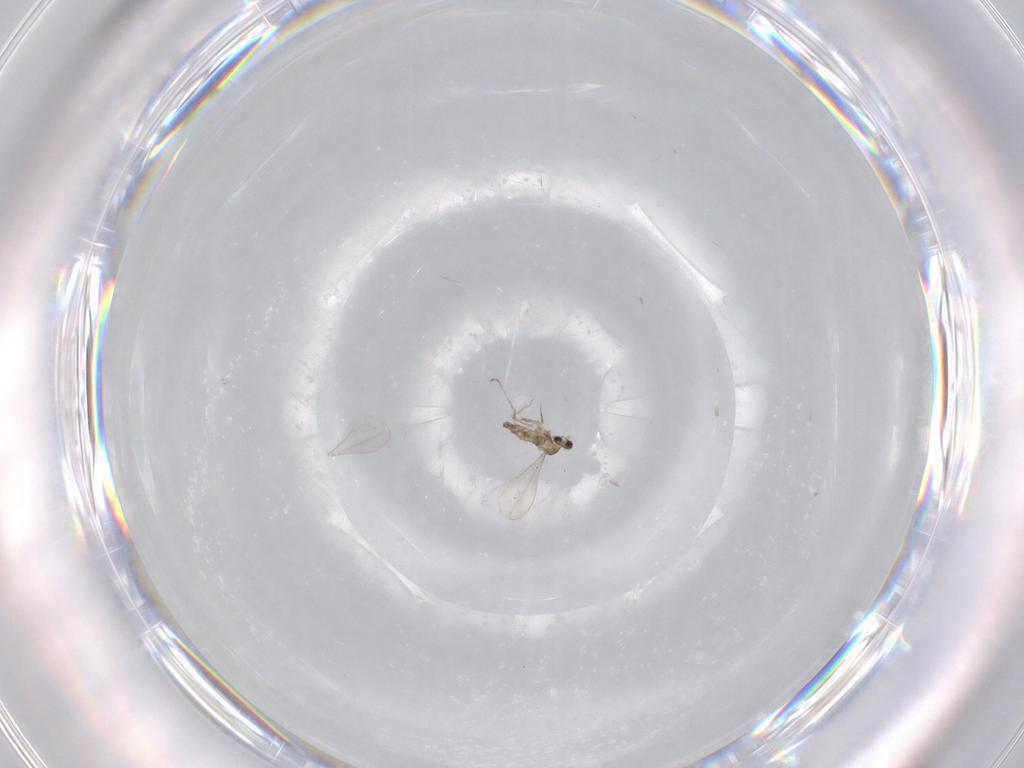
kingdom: Animalia
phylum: Arthropoda
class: Insecta
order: Diptera
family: Cecidomyiidae
